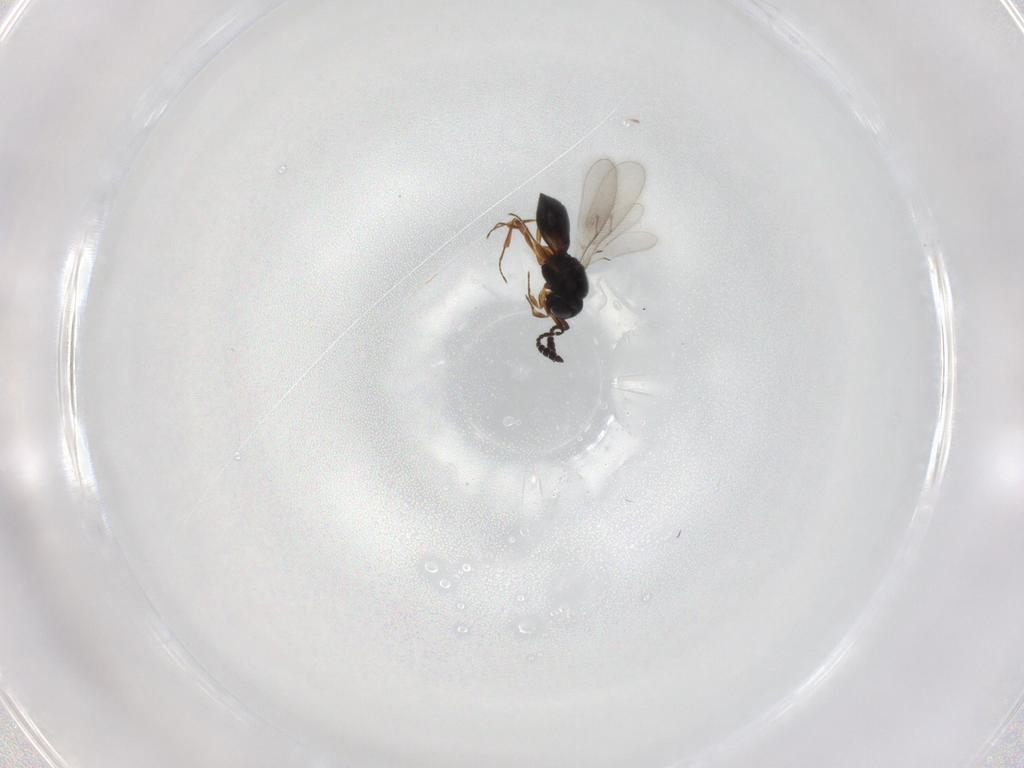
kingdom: Animalia
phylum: Arthropoda
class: Insecta
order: Hymenoptera
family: Scelionidae
